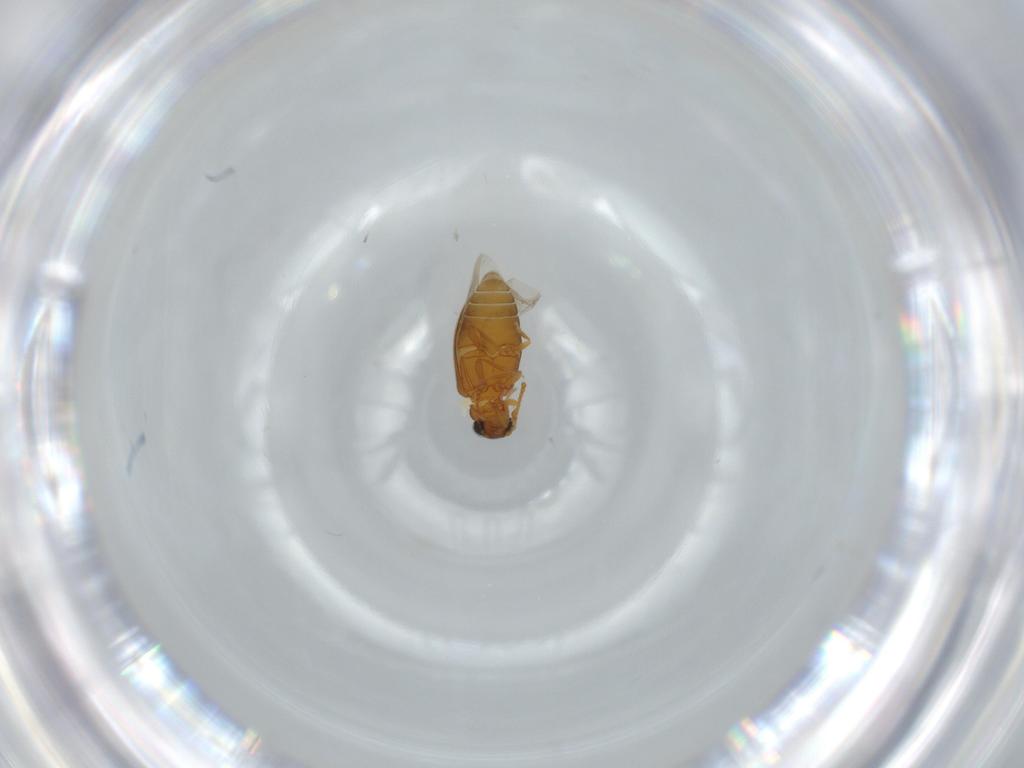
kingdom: Animalia
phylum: Arthropoda
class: Insecta
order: Coleoptera
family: Aderidae
